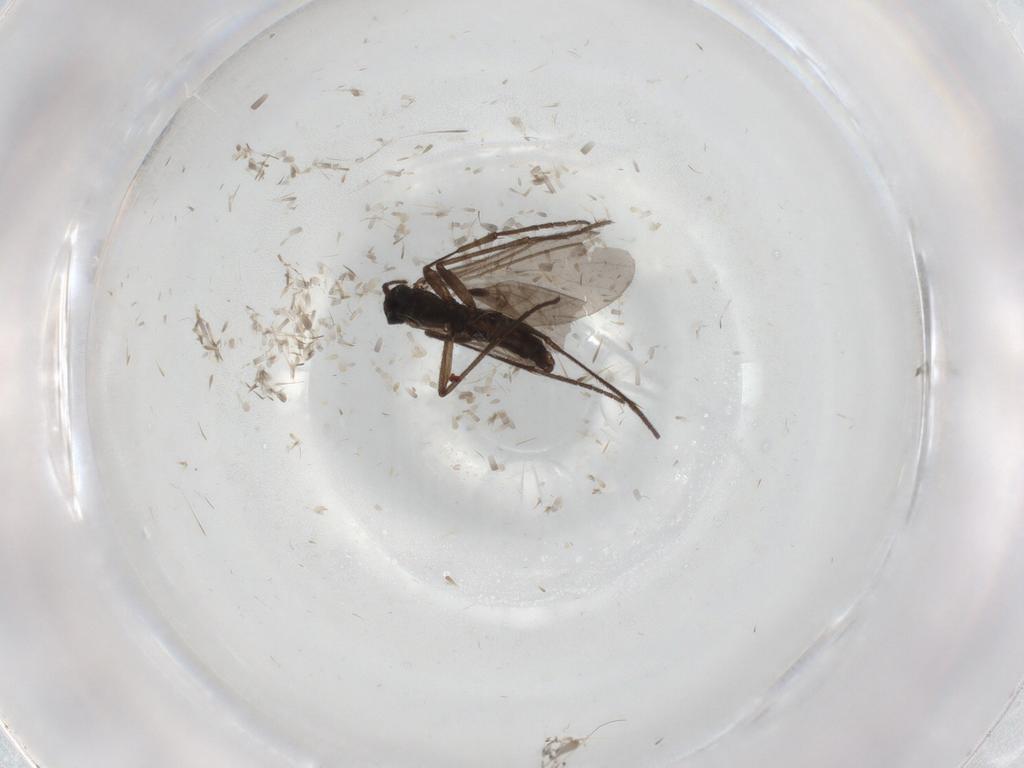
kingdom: Animalia
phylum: Arthropoda
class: Insecta
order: Diptera
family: Sciaridae
